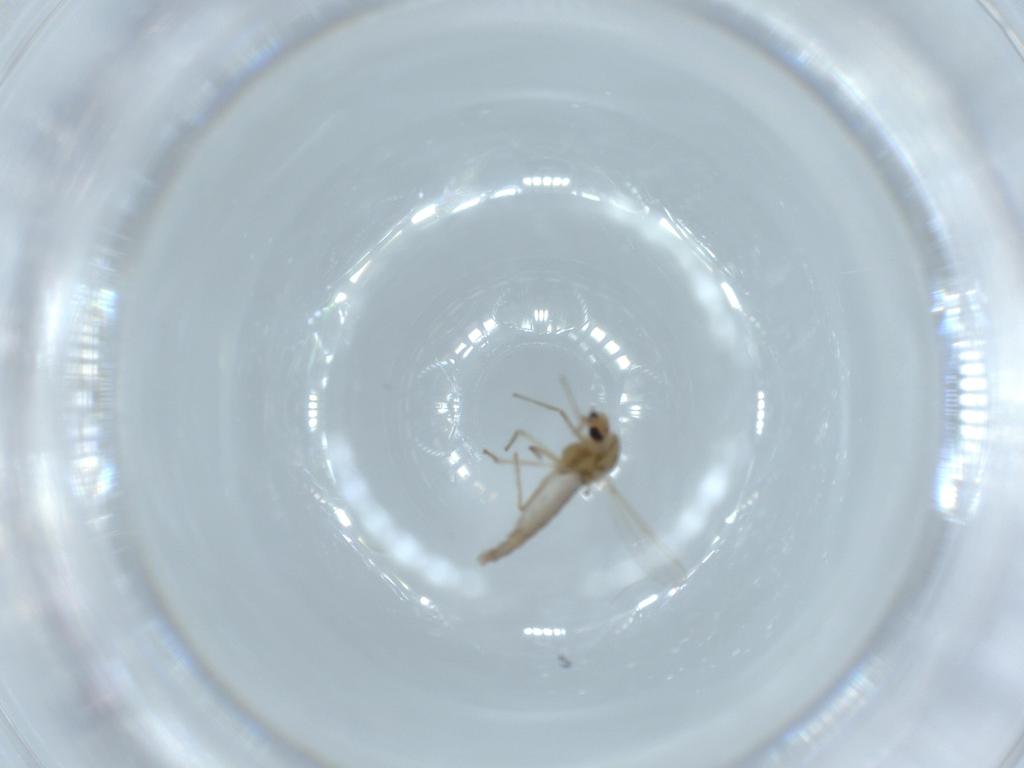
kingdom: Animalia
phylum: Arthropoda
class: Insecta
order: Diptera
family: Chironomidae
